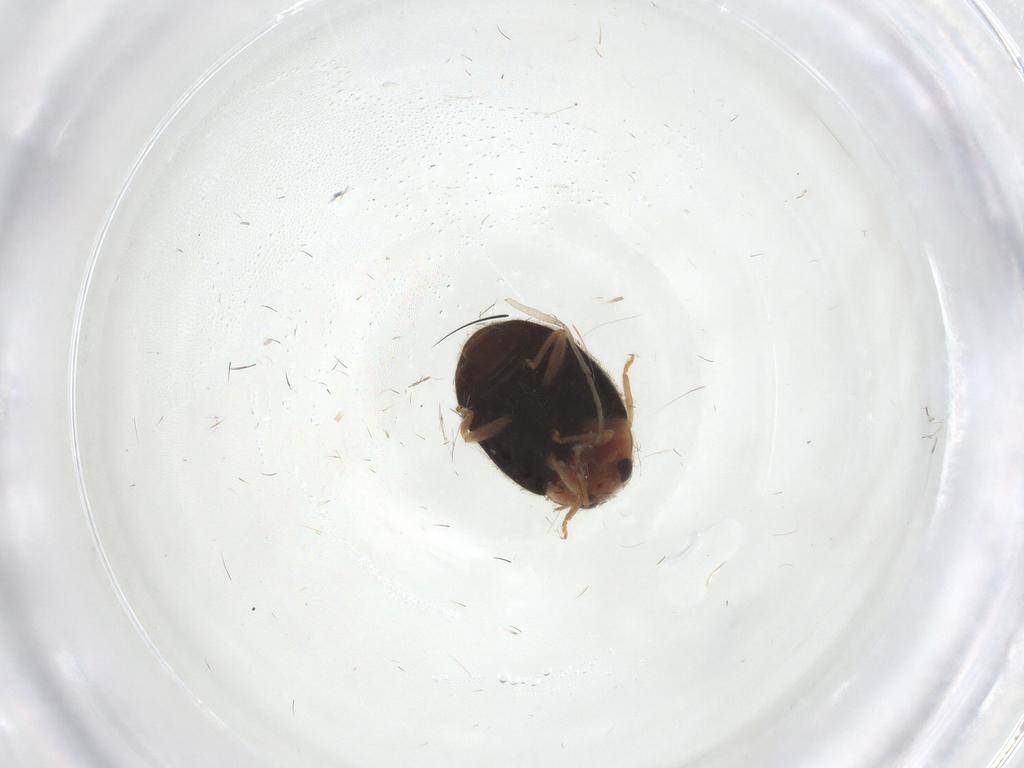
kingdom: Animalia
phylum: Arthropoda
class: Insecta
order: Coleoptera
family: Coccinellidae
